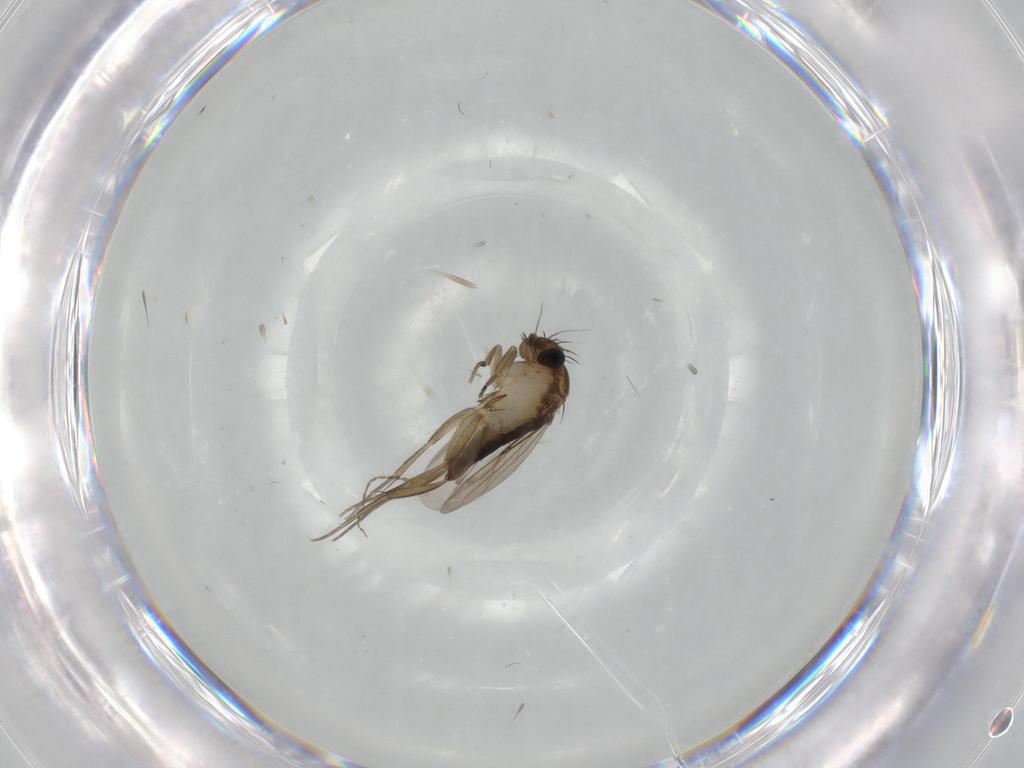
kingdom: Animalia
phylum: Arthropoda
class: Insecta
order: Diptera
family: Phoridae
